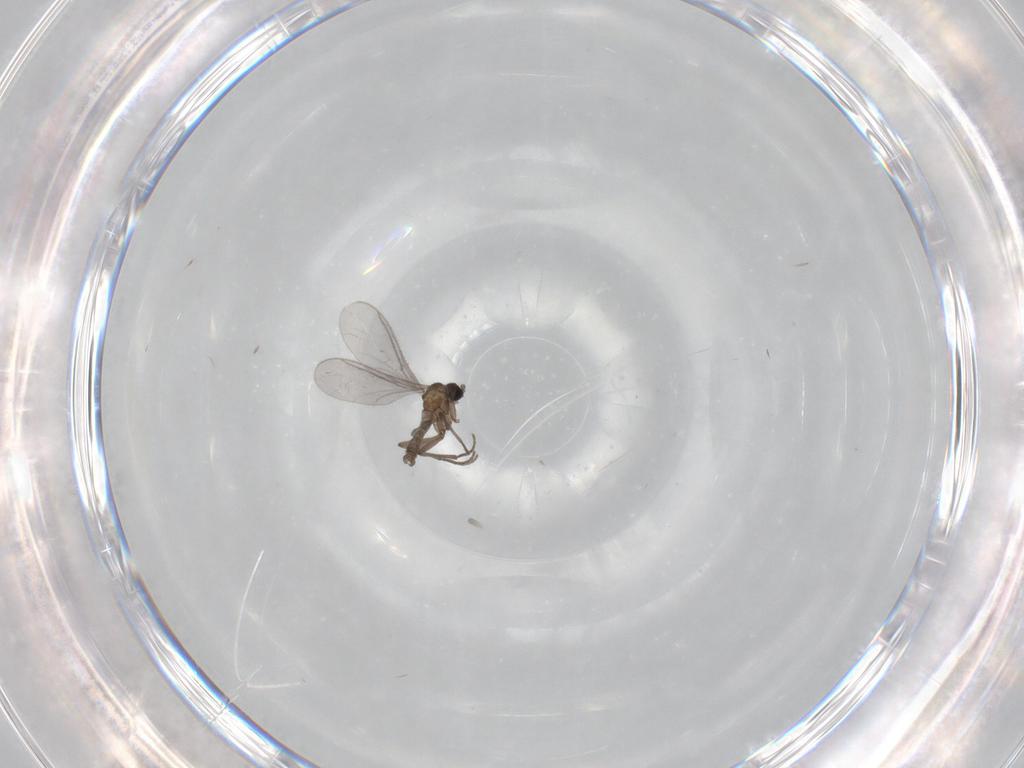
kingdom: Animalia
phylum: Arthropoda
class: Insecta
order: Diptera
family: Sciaridae
